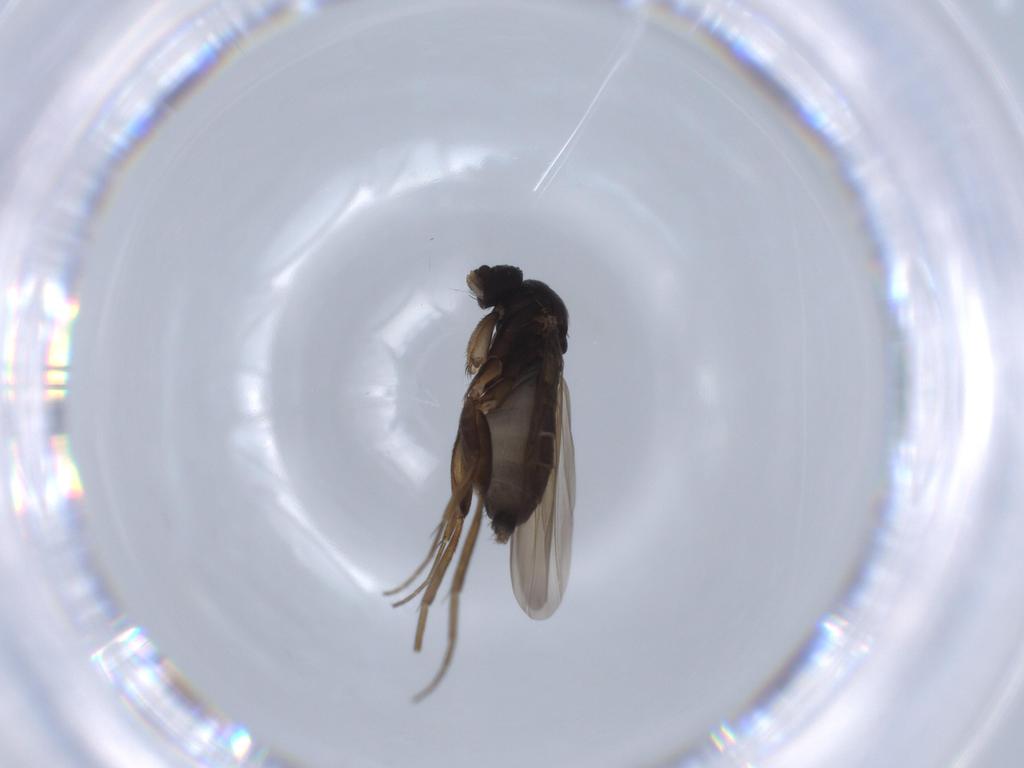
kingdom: Animalia
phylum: Arthropoda
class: Insecta
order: Diptera
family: Phoridae
